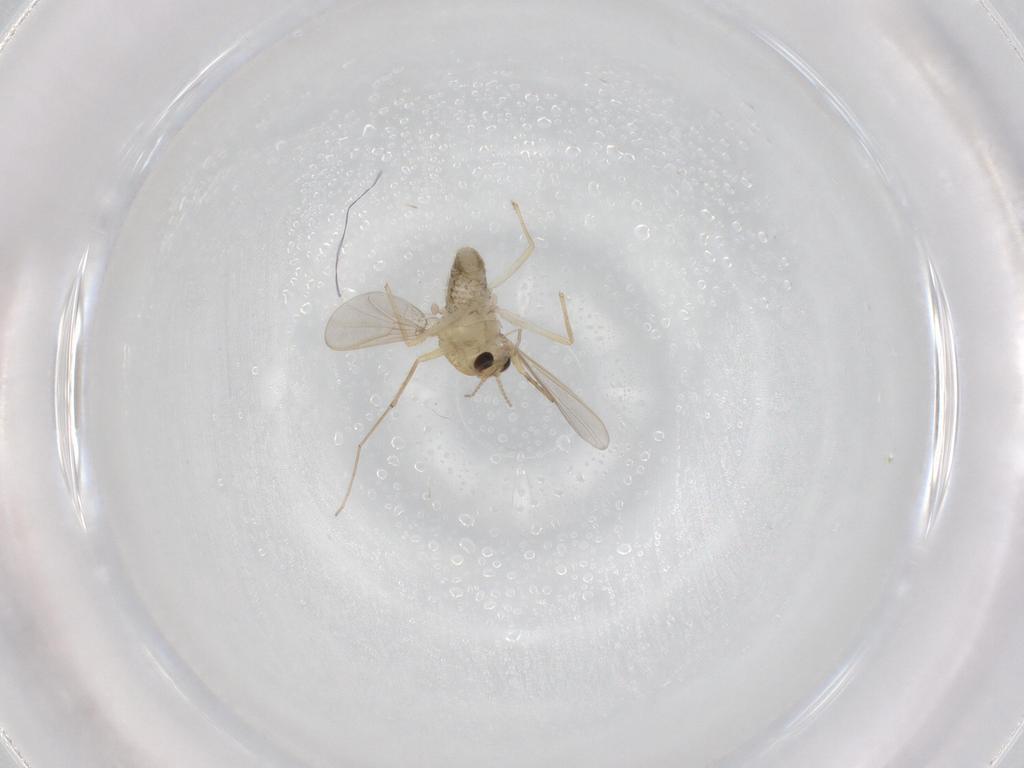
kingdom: Animalia
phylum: Arthropoda
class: Insecta
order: Diptera
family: Chironomidae
